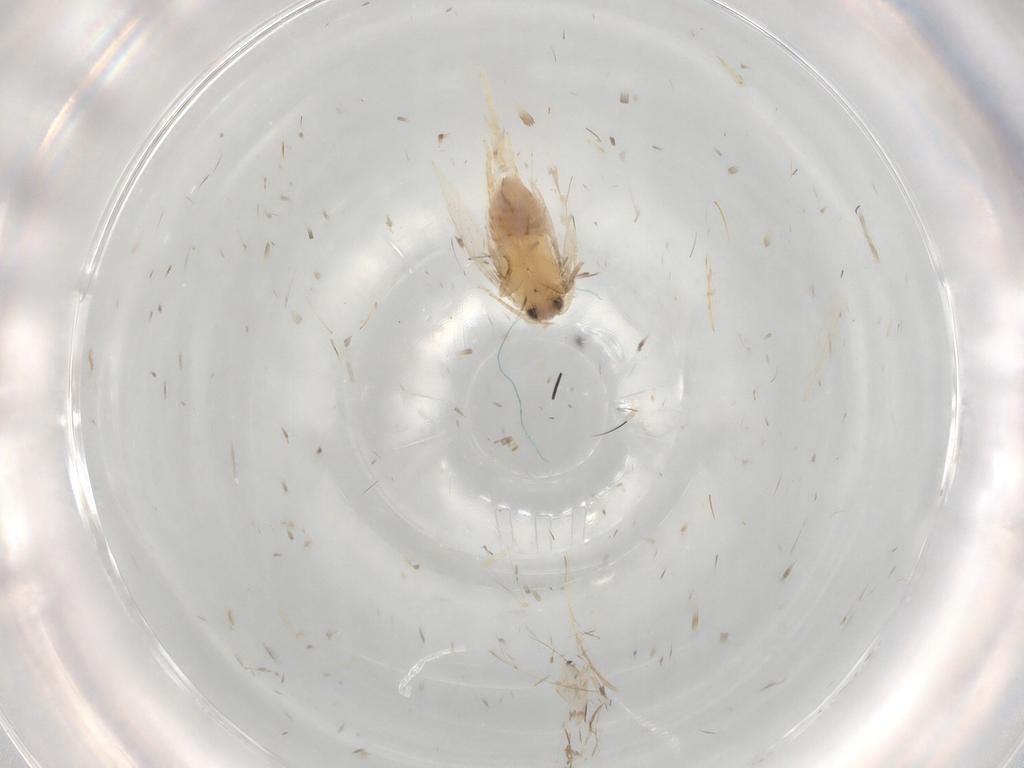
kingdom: Animalia
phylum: Arthropoda
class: Insecta
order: Lepidoptera
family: Nepticulidae
